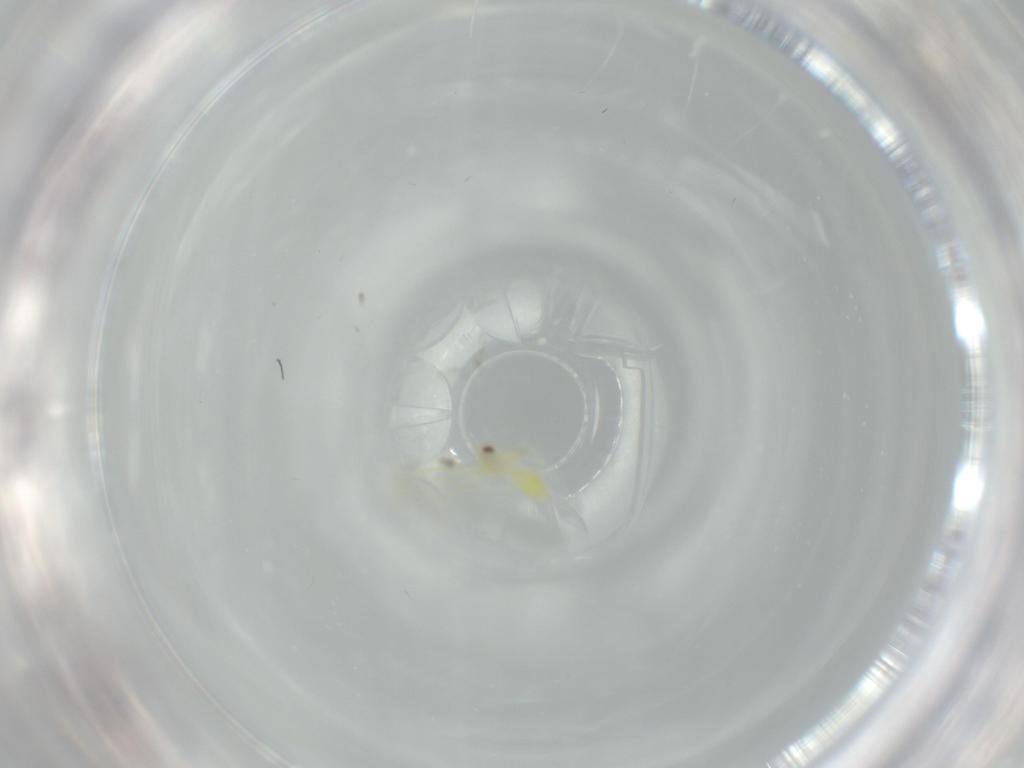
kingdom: Animalia
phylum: Arthropoda
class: Insecta
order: Hemiptera
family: Aleyrodidae
